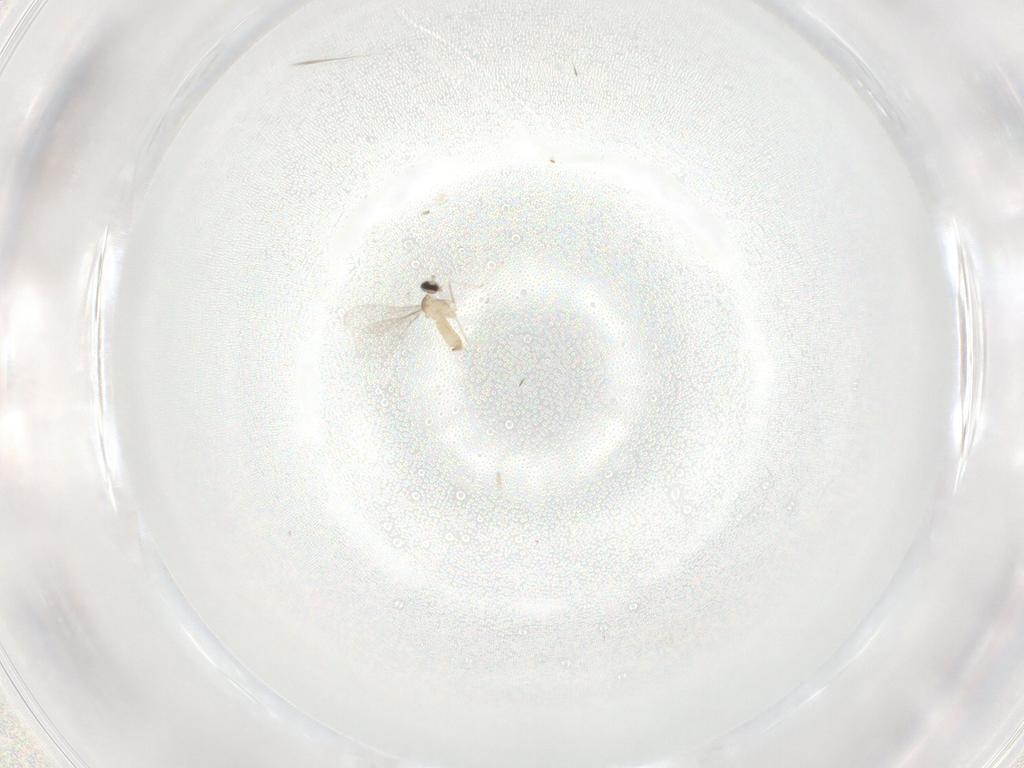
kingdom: Animalia
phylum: Arthropoda
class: Insecta
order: Diptera
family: Cecidomyiidae
